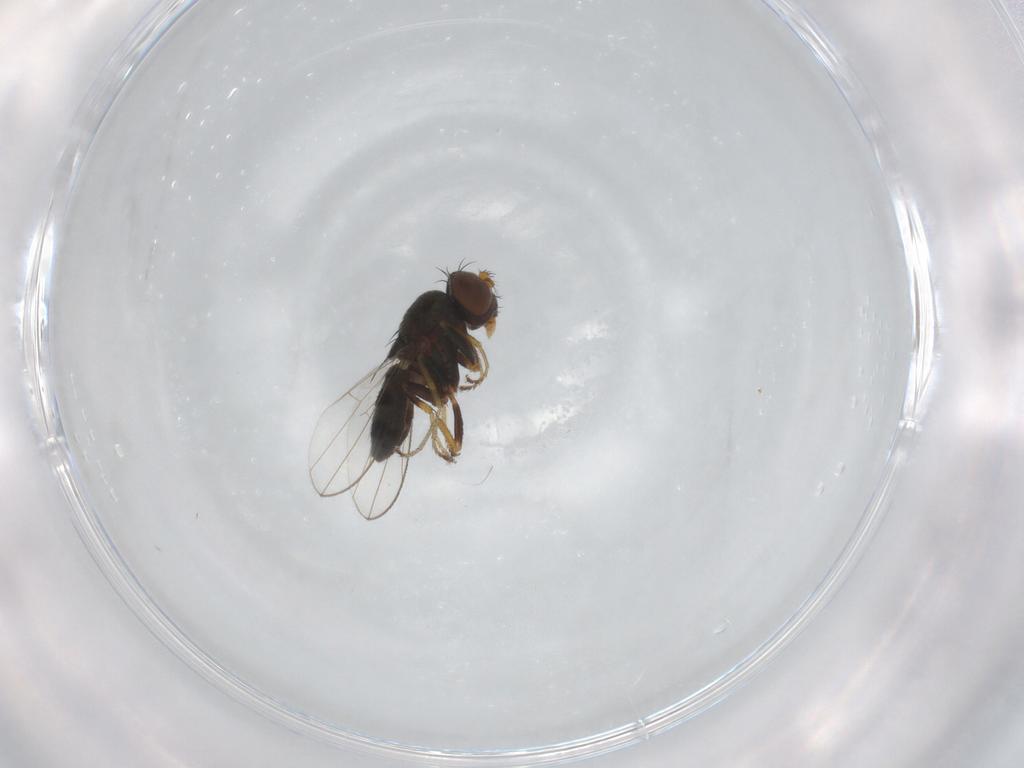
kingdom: Animalia
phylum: Arthropoda
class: Insecta
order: Diptera
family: Ephydridae
